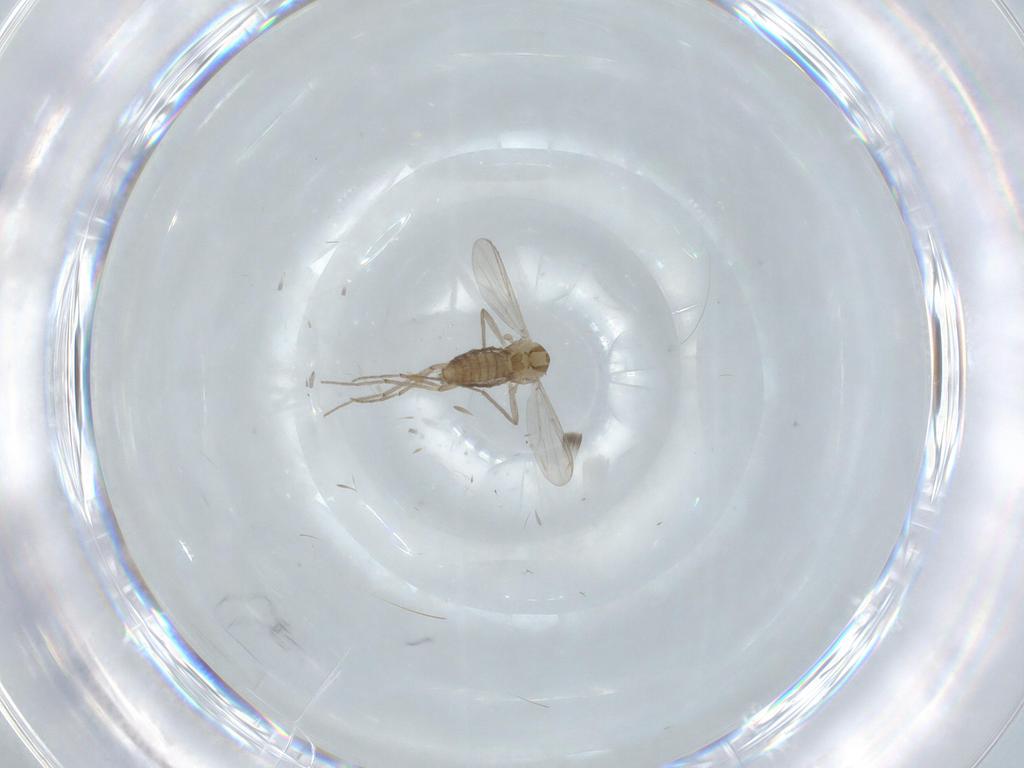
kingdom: Animalia
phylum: Arthropoda
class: Insecta
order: Diptera
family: Chironomidae
